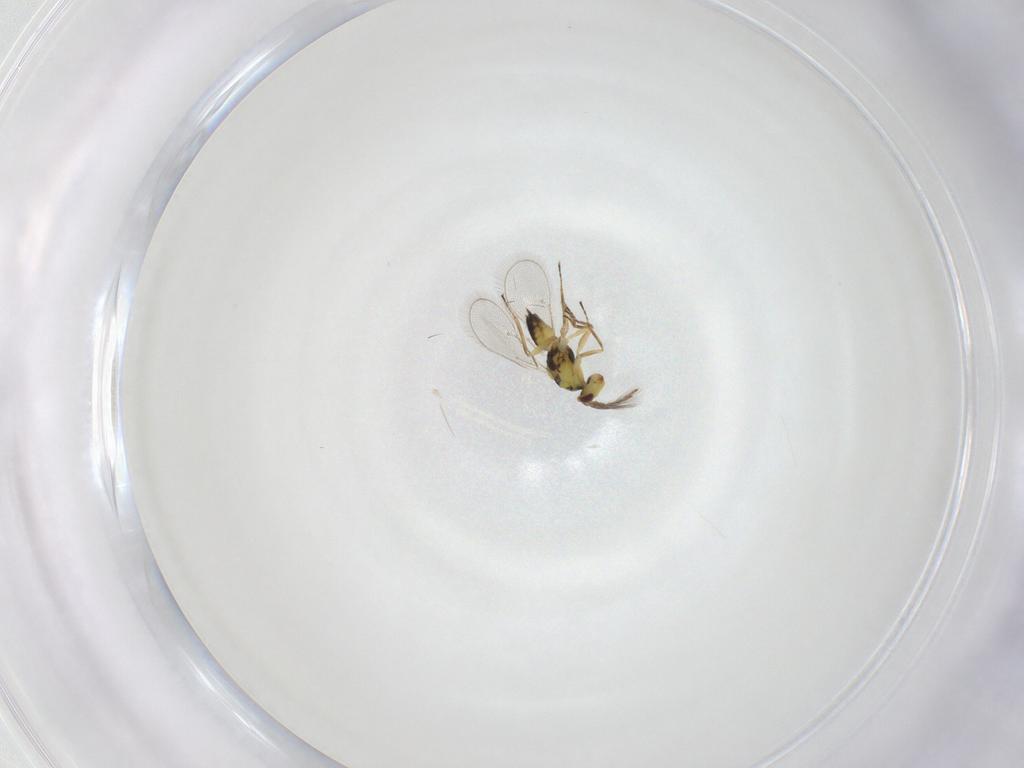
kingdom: Animalia
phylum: Arthropoda
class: Insecta
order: Hymenoptera
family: Eulophidae
